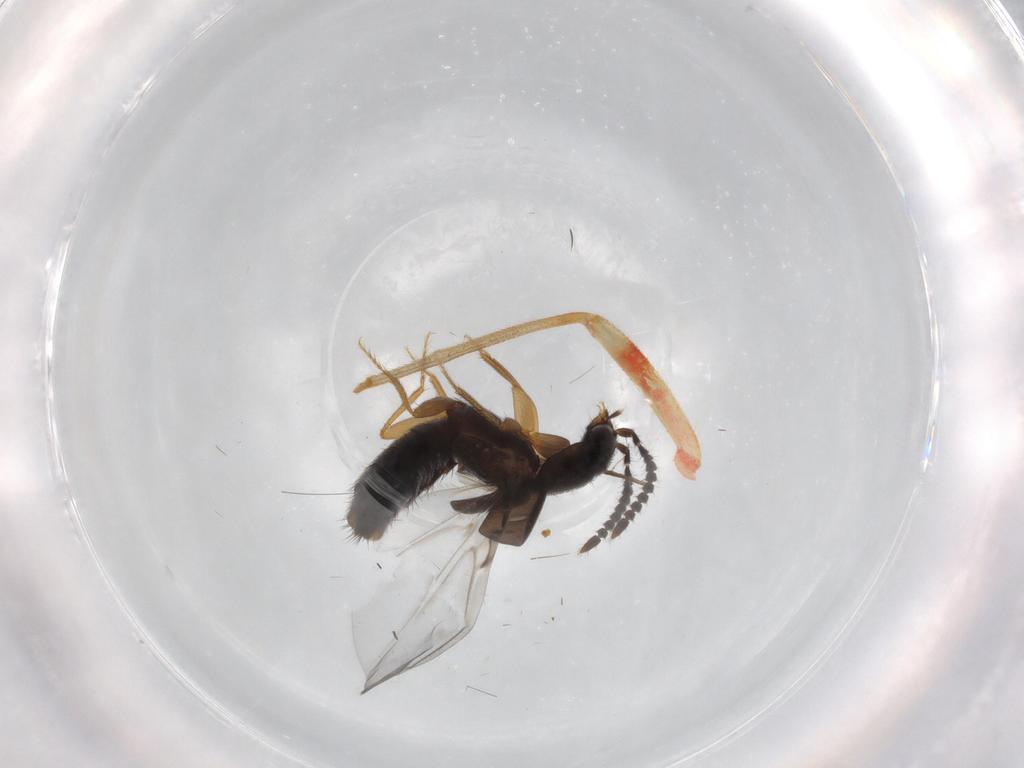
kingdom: Animalia
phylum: Arthropoda
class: Insecta
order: Coleoptera
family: Staphylinidae
